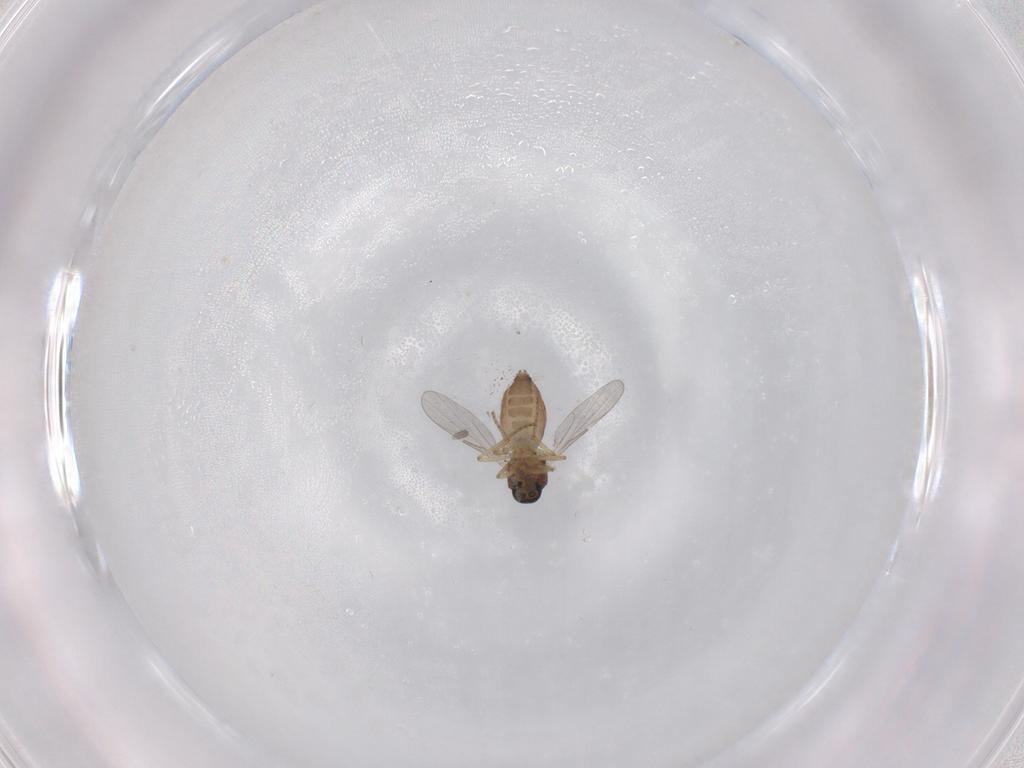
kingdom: Animalia
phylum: Arthropoda
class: Insecta
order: Diptera
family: Ceratopogonidae
